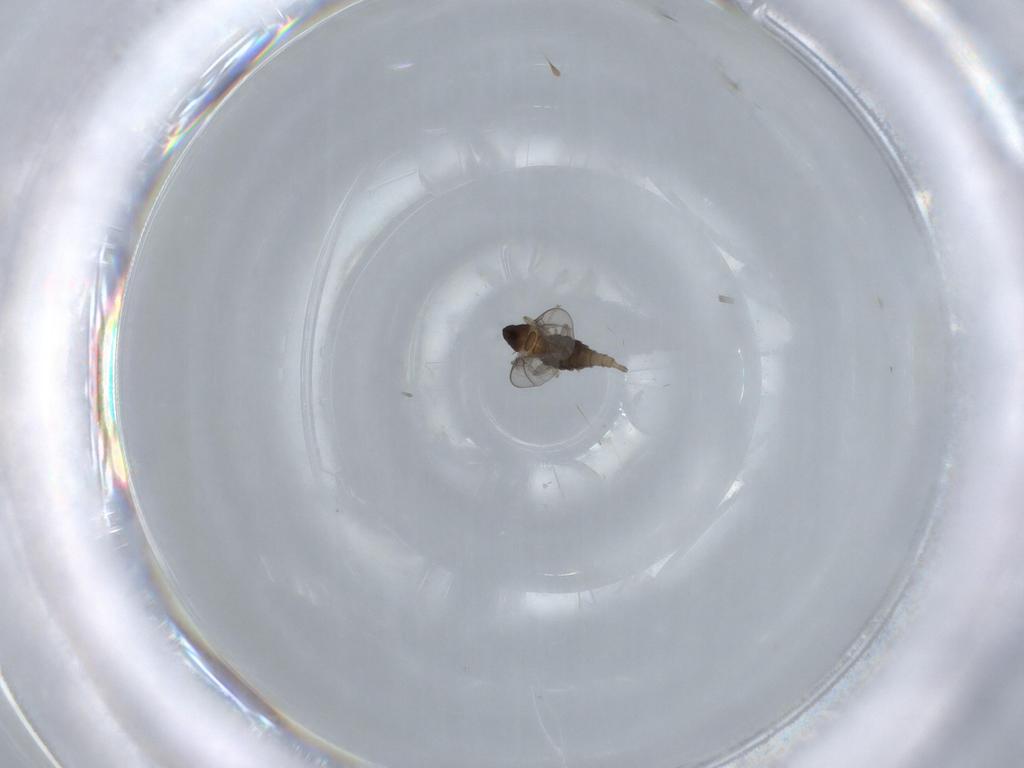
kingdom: Animalia
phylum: Arthropoda
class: Insecta
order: Diptera
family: Cecidomyiidae
